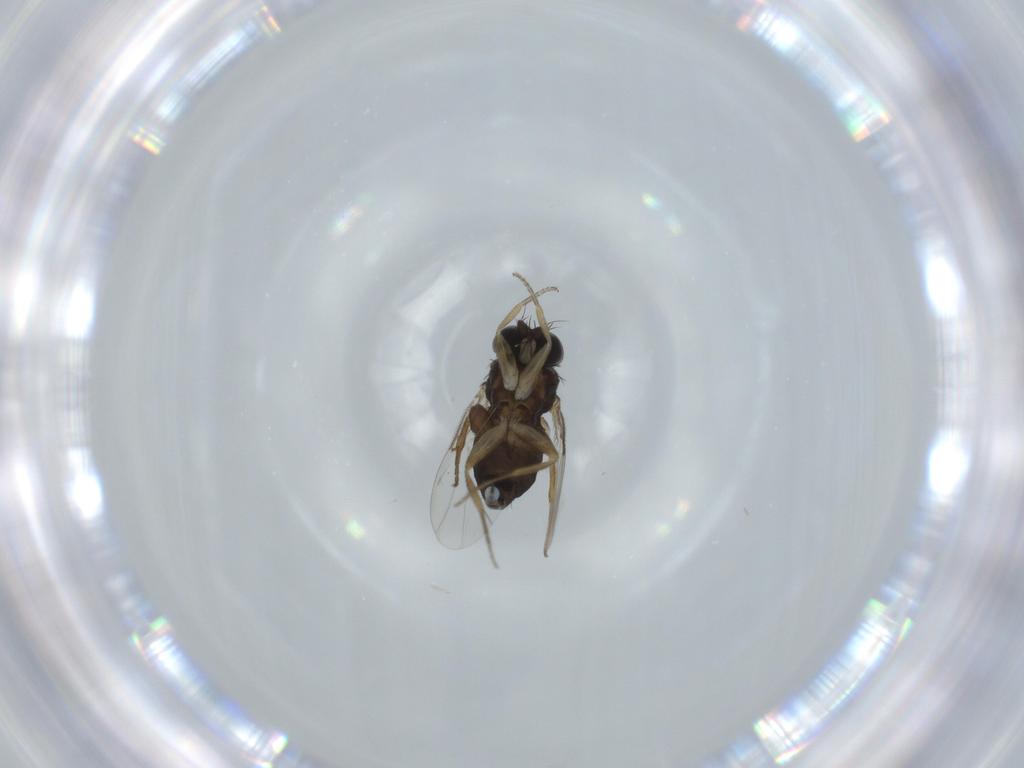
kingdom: Animalia
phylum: Arthropoda
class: Insecta
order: Diptera
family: Phoridae
